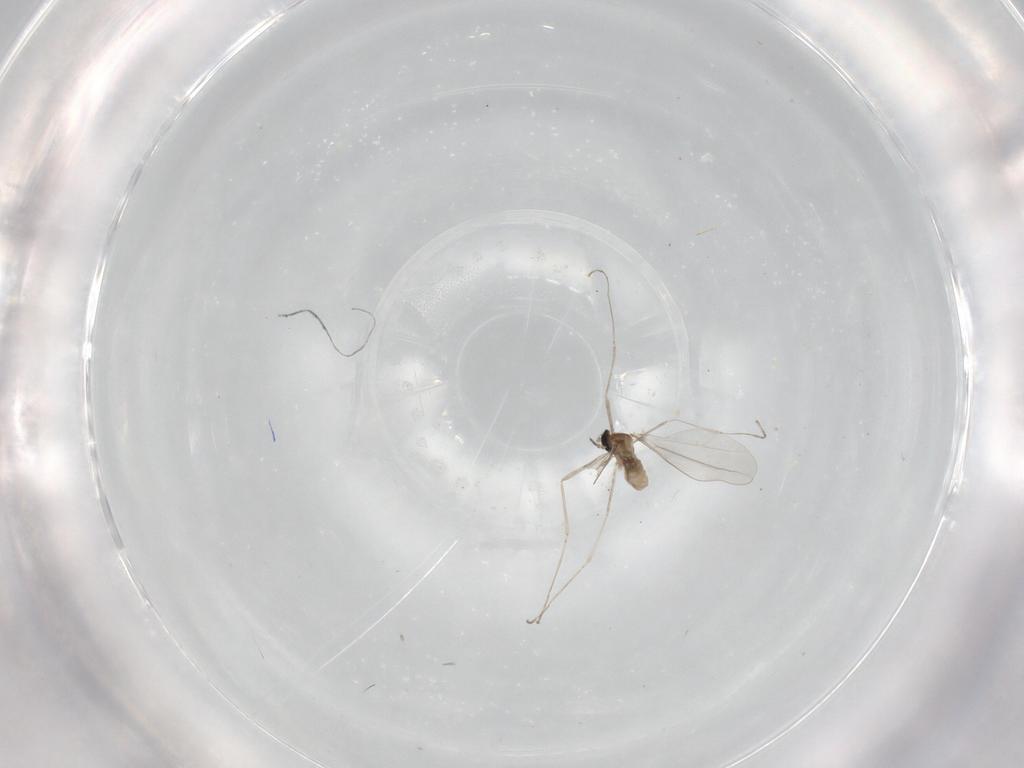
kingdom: Animalia
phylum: Arthropoda
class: Insecta
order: Diptera
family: Cecidomyiidae
